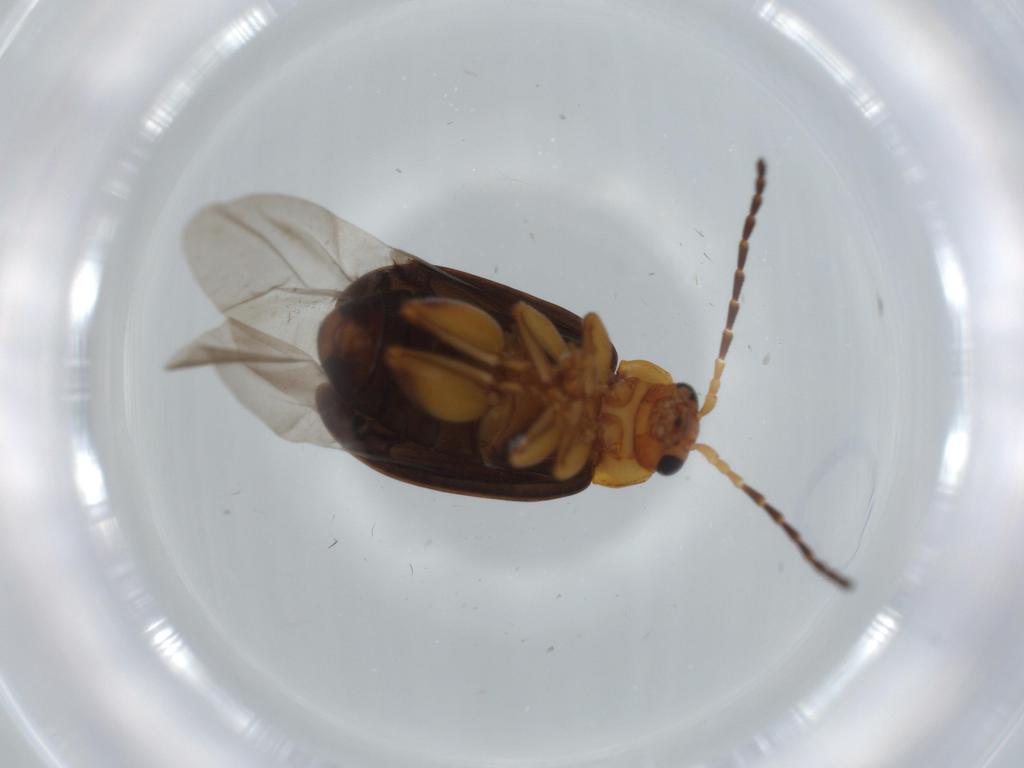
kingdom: Animalia
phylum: Arthropoda
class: Insecta
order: Coleoptera
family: Chrysomelidae
